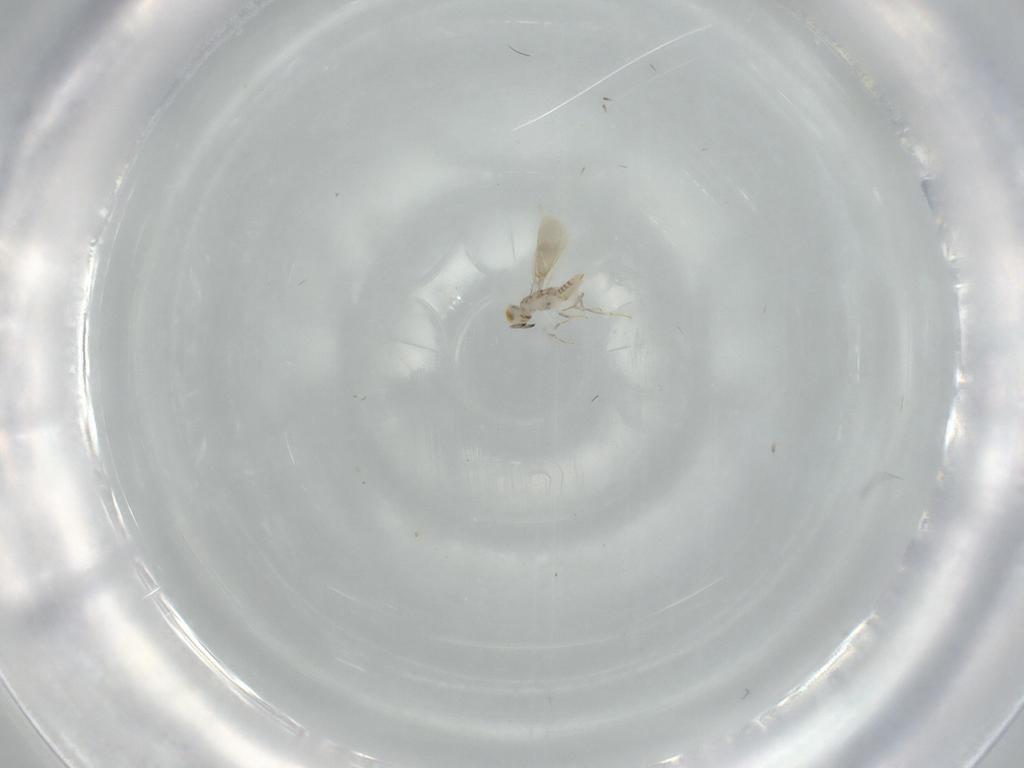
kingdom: Animalia
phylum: Arthropoda
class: Insecta
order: Hymenoptera
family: Aphelinidae
